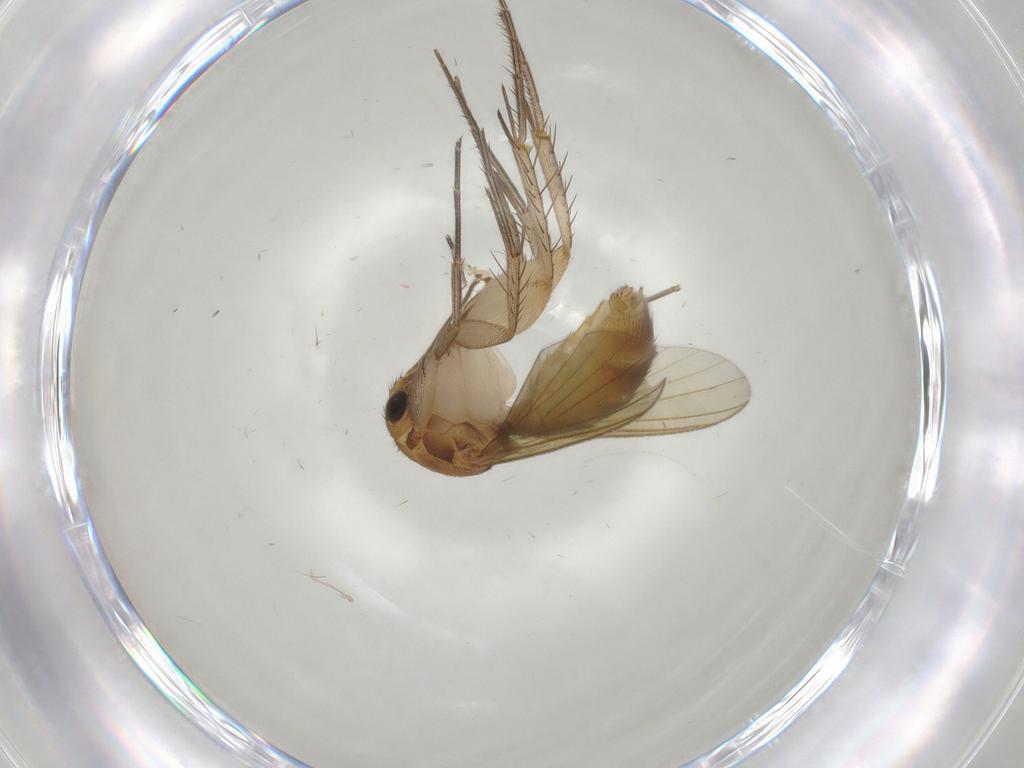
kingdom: Animalia
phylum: Arthropoda
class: Insecta
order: Diptera
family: Mycetophilidae
